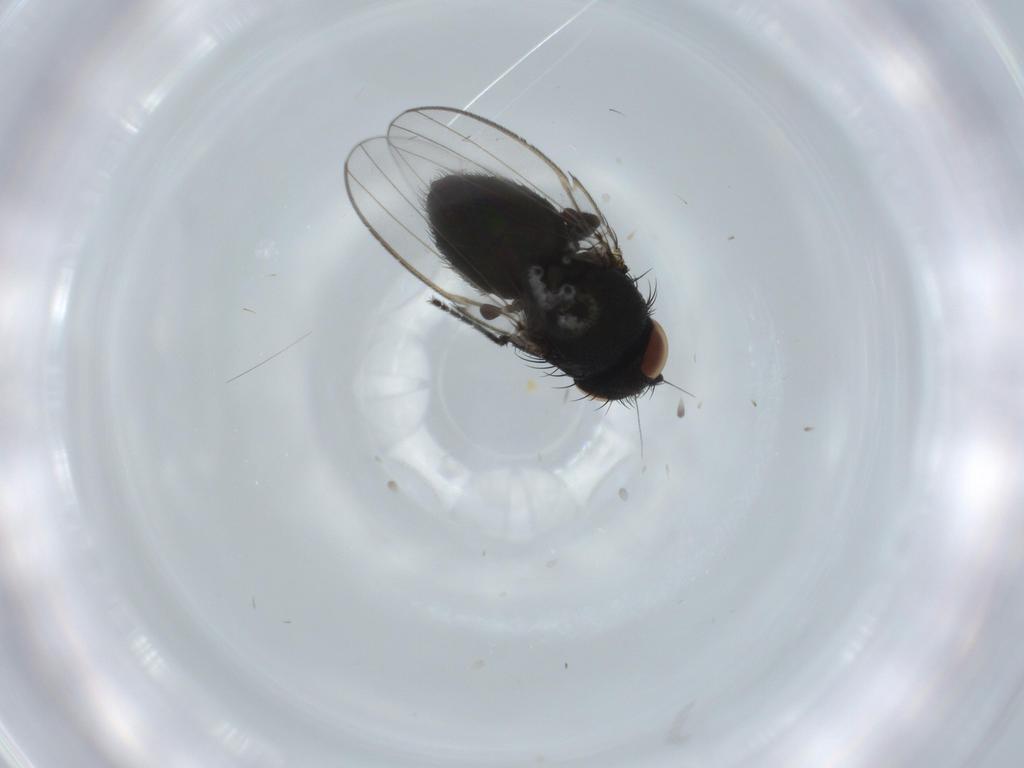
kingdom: Animalia
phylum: Arthropoda
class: Insecta
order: Diptera
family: Milichiidae
